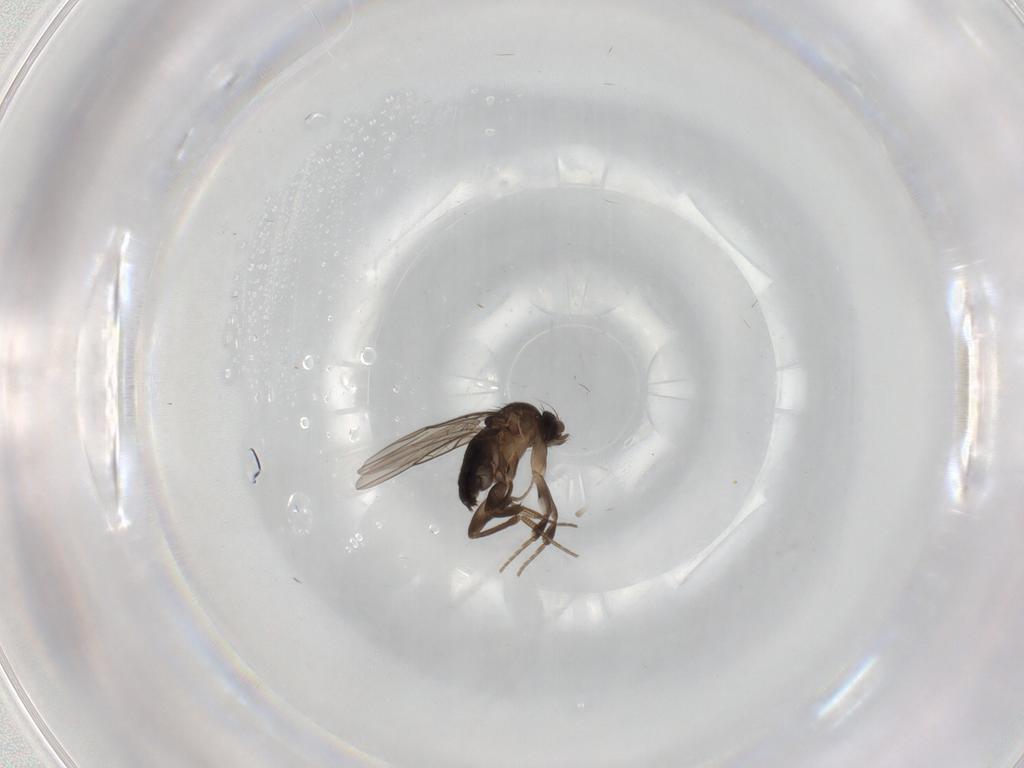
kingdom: Animalia
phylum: Arthropoda
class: Insecta
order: Diptera
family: Phoridae
